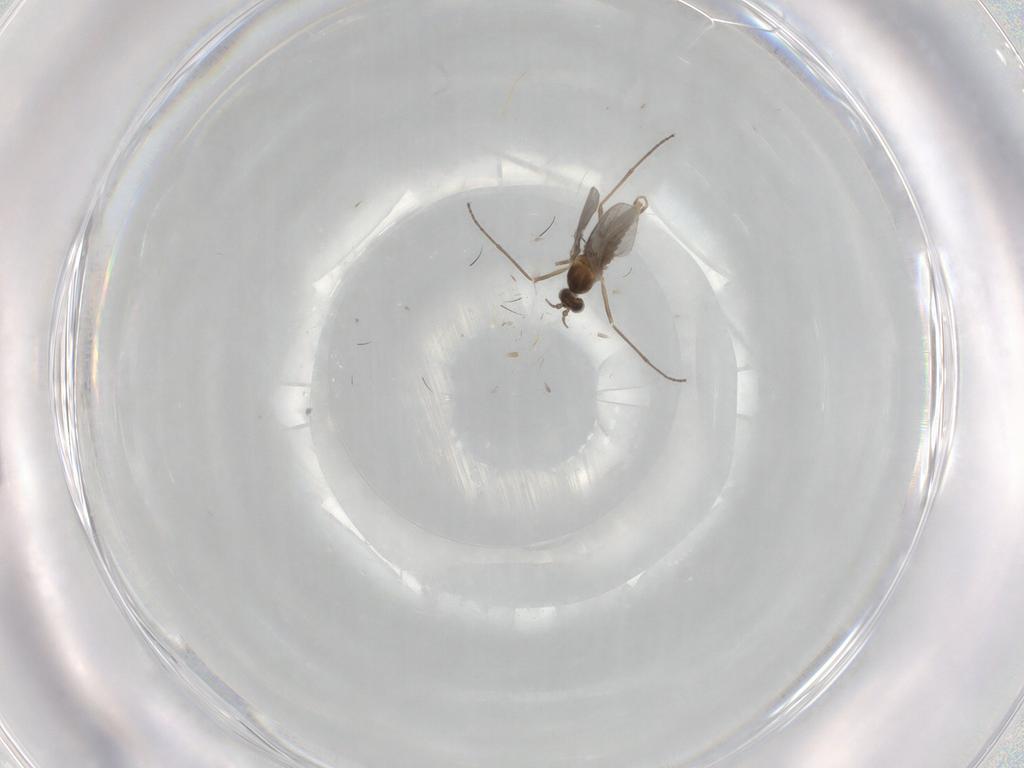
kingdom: Animalia
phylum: Arthropoda
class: Insecta
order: Diptera
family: Cecidomyiidae
